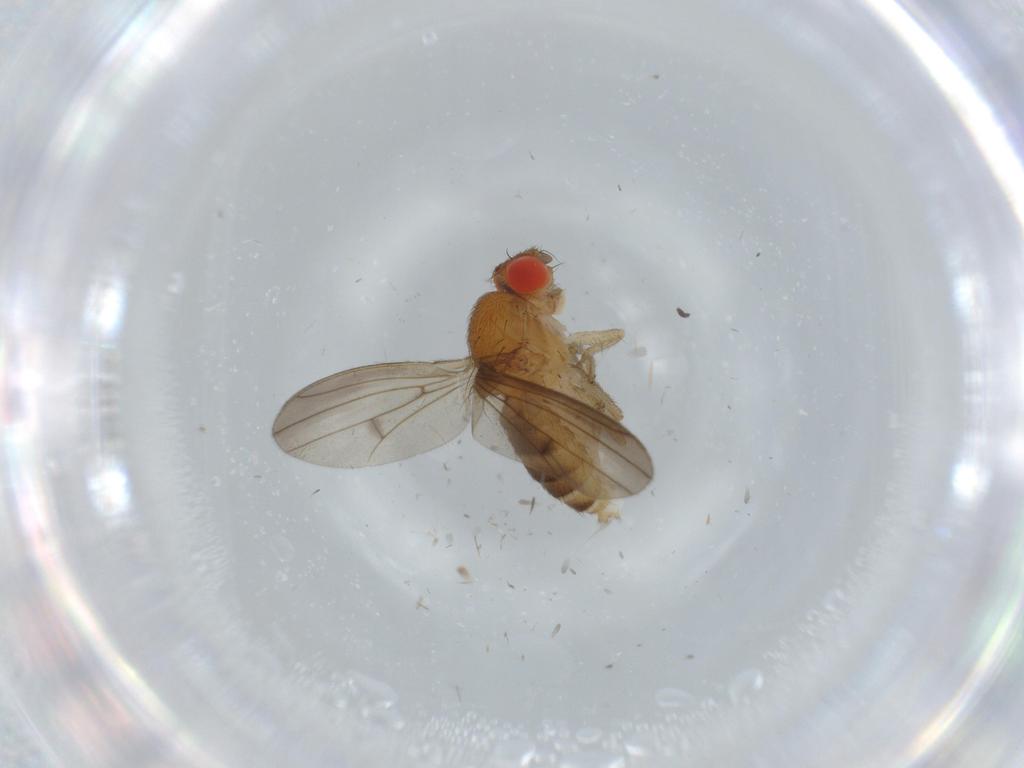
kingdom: Animalia
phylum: Arthropoda
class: Insecta
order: Diptera
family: Drosophilidae
